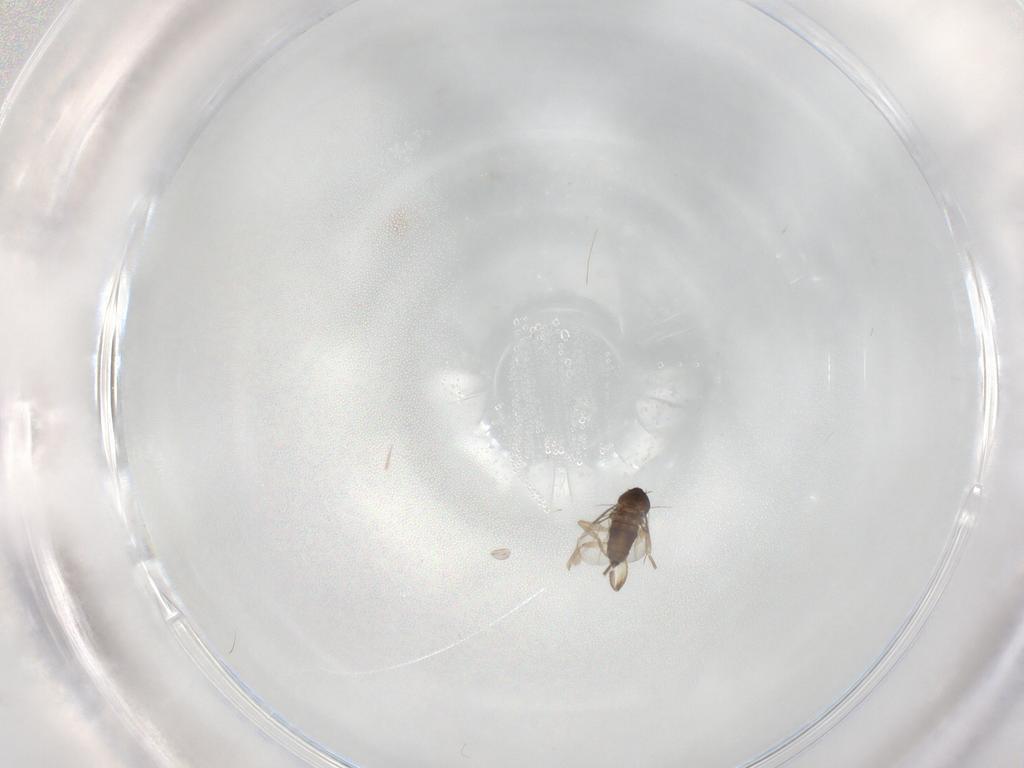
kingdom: Animalia
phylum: Arthropoda
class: Insecta
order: Diptera
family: Phoridae
